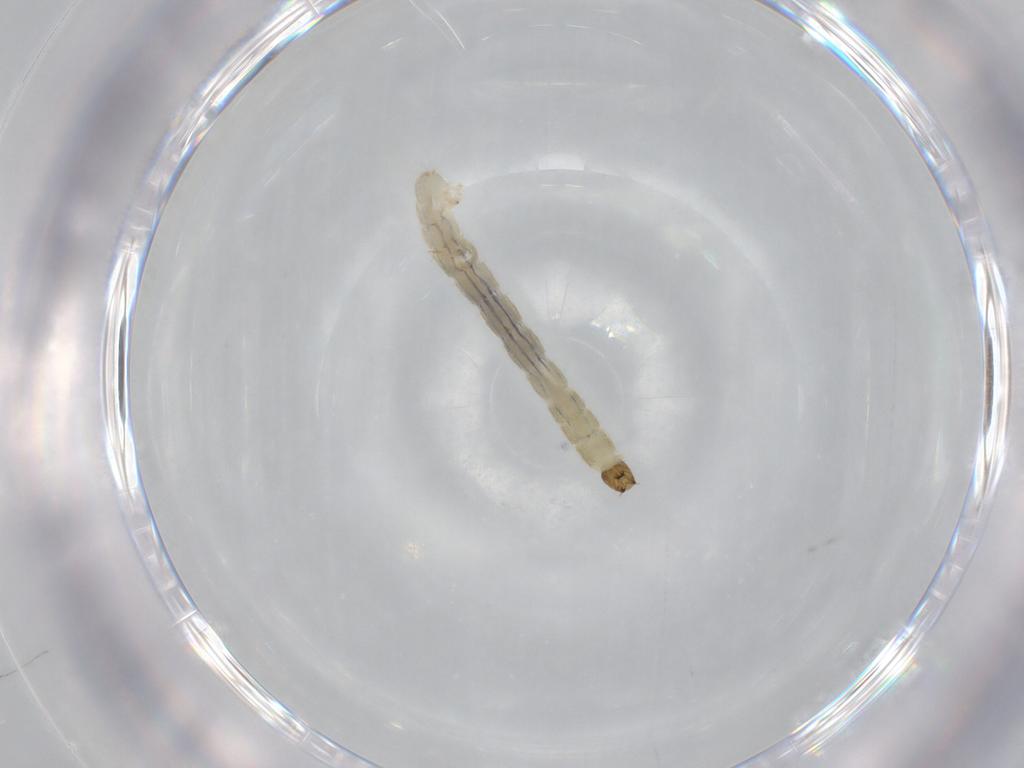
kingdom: Animalia
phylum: Arthropoda
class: Insecta
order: Diptera
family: Chironomidae
